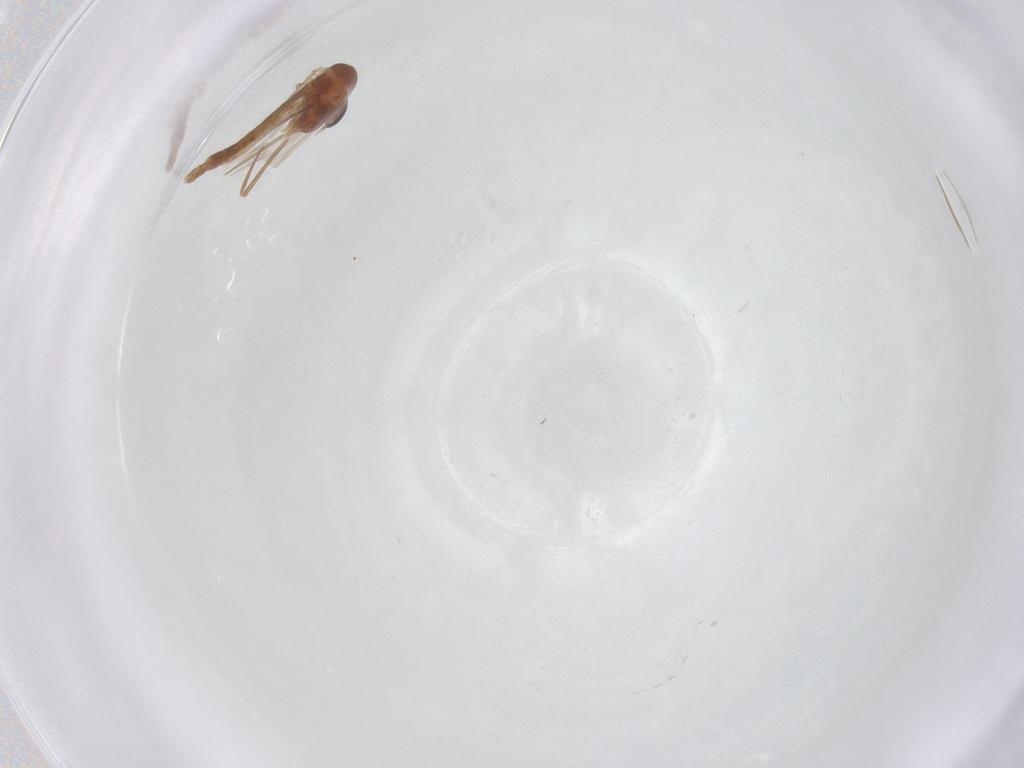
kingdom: Animalia
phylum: Arthropoda
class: Insecta
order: Diptera
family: Chironomidae
